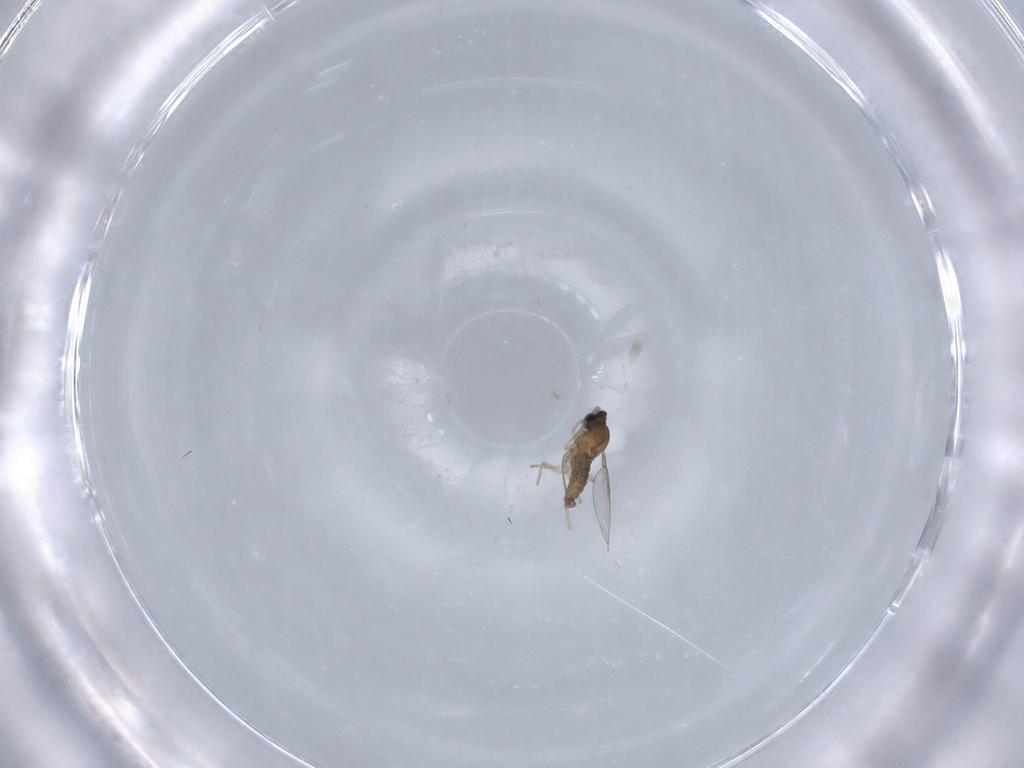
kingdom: Animalia
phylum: Arthropoda
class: Insecta
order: Diptera
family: Cecidomyiidae
